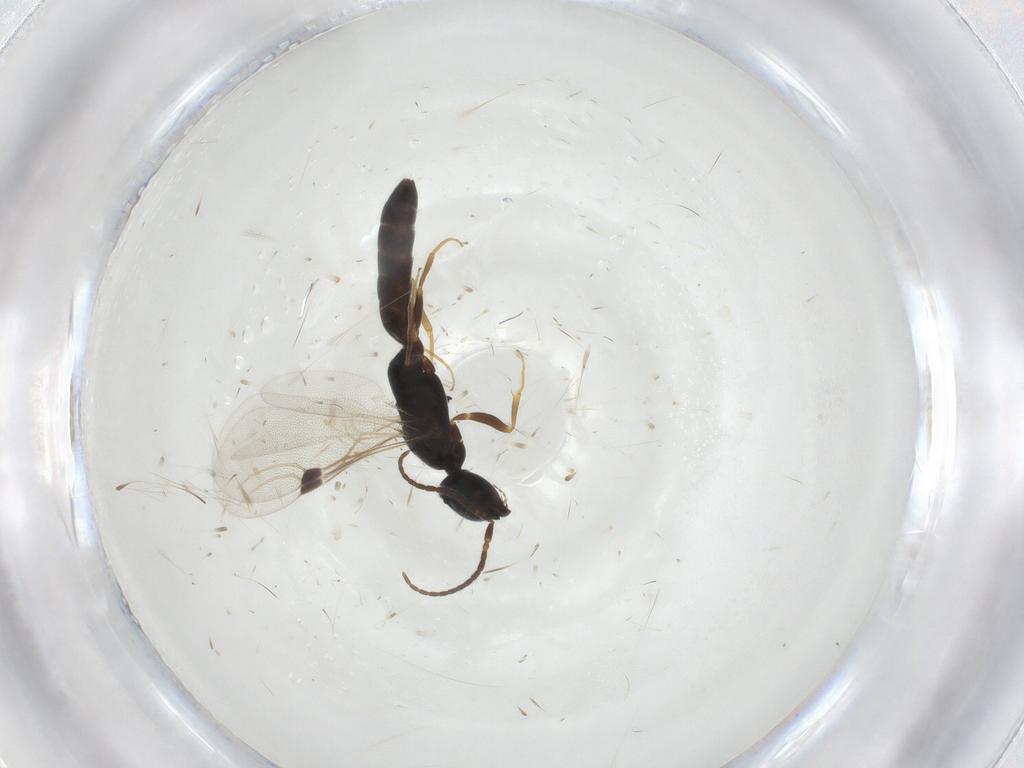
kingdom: Animalia
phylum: Arthropoda
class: Insecta
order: Hymenoptera
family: Bethylidae
